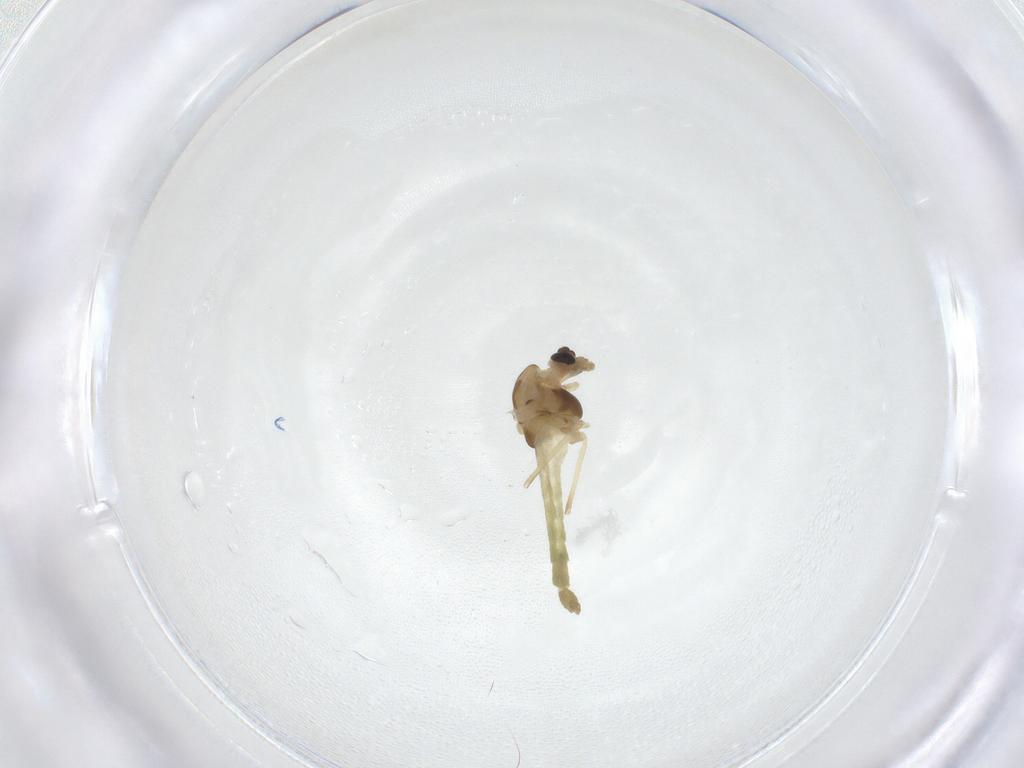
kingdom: Animalia
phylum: Arthropoda
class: Insecta
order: Diptera
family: Chironomidae
